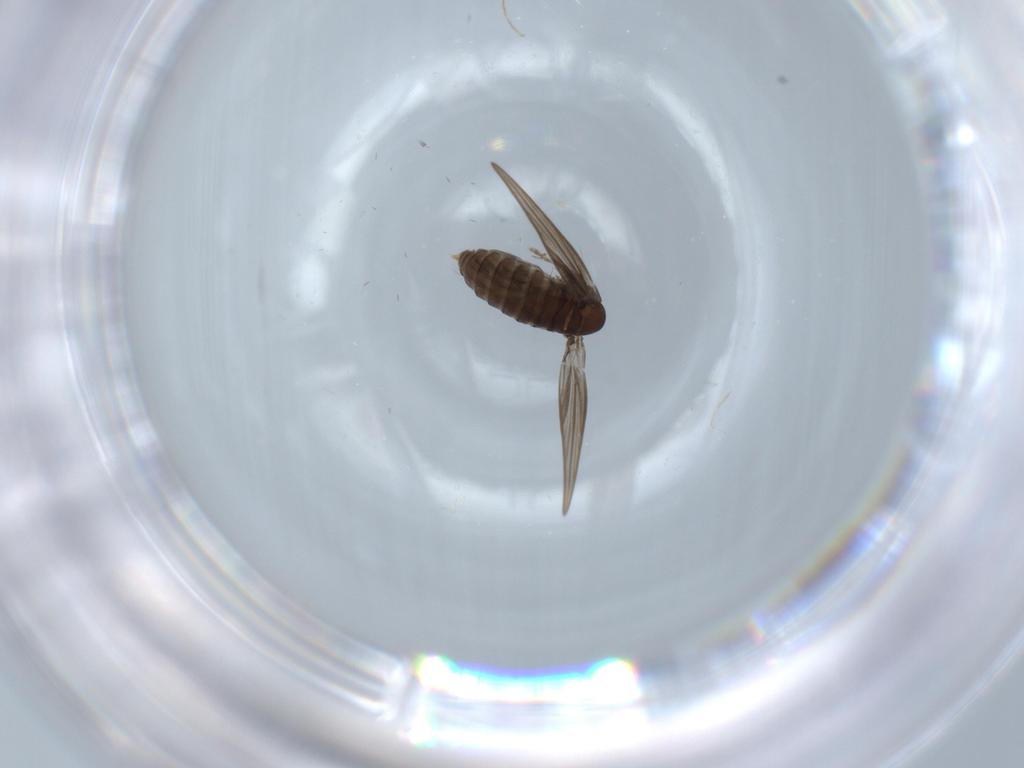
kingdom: Animalia
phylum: Arthropoda
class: Insecta
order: Diptera
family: Psychodidae
